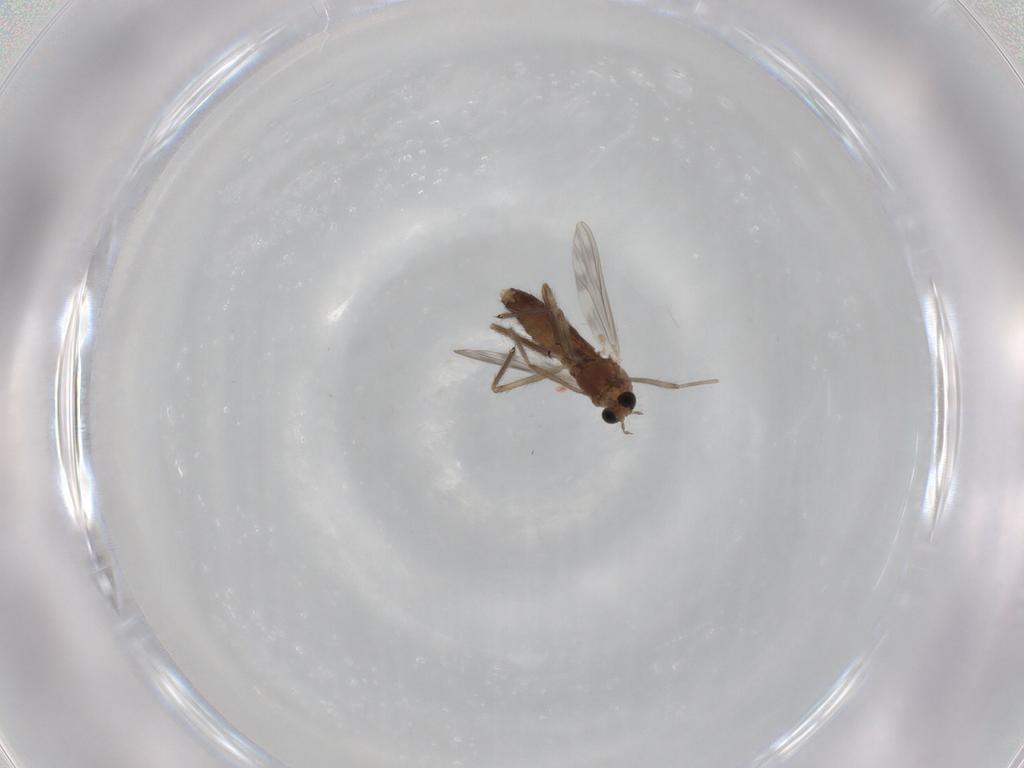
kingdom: Animalia
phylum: Arthropoda
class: Insecta
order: Diptera
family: Chironomidae
